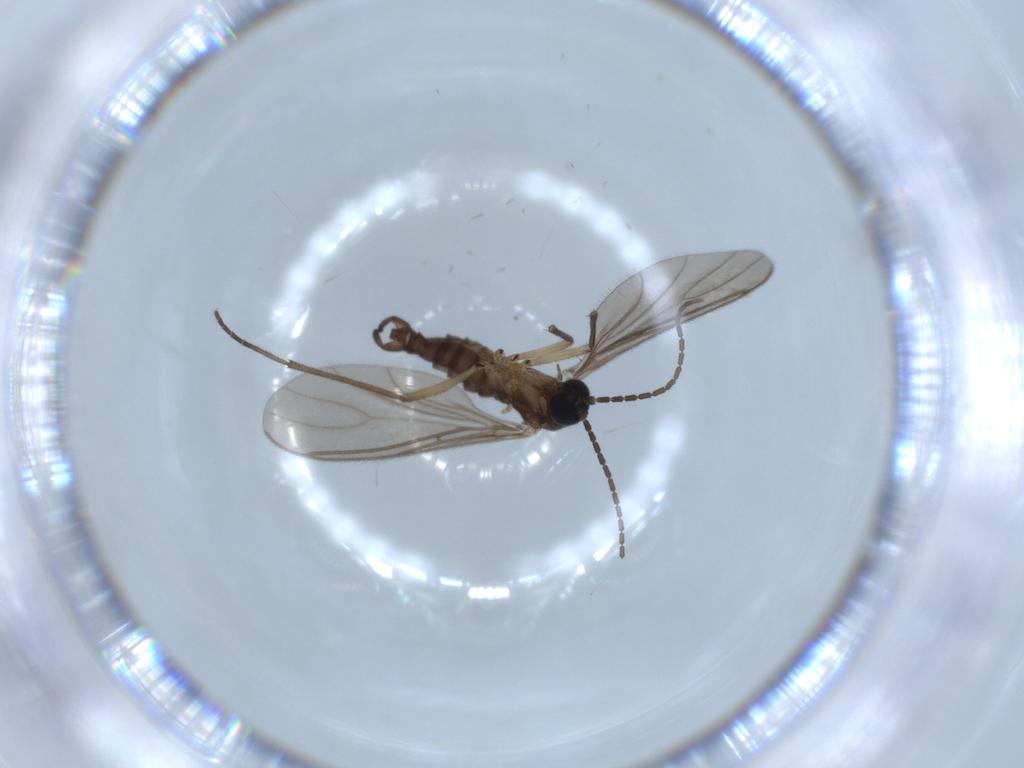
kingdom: Animalia
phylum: Arthropoda
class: Insecta
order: Diptera
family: Sciaridae
